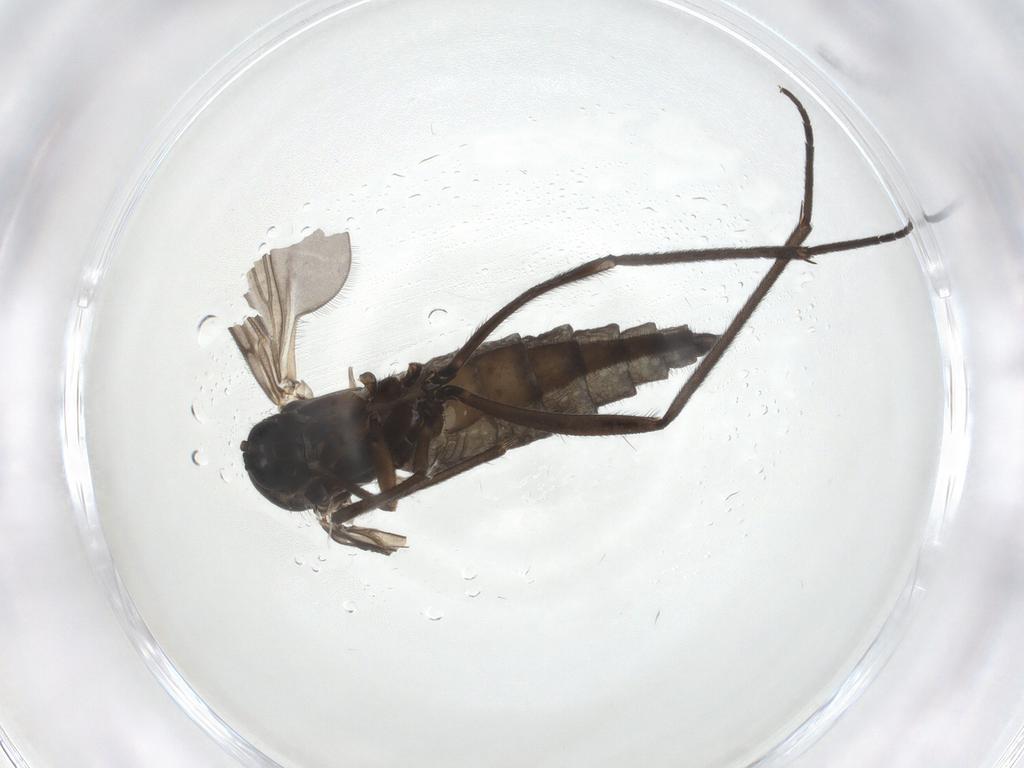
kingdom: Animalia
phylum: Arthropoda
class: Insecta
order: Diptera
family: Sciaridae
